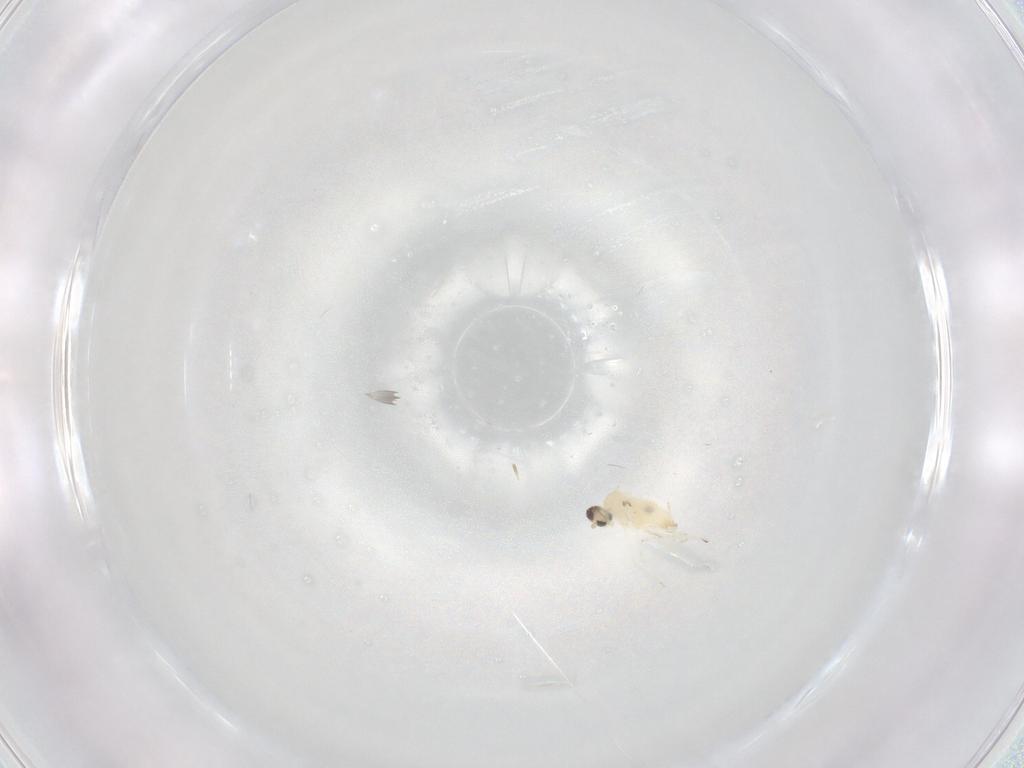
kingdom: Animalia
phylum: Arthropoda
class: Insecta
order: Diptera
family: Cecidomyiidae
